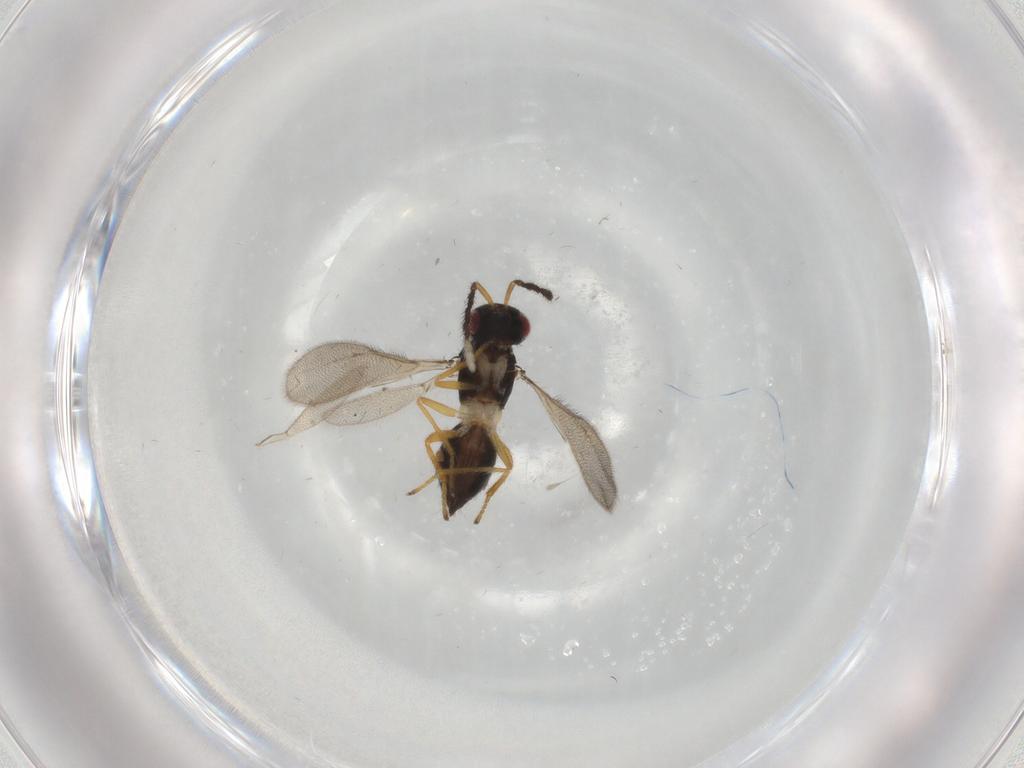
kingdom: Animalia
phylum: Arthropoda
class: Insecta
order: Hymenoptera
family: Eulophidae
